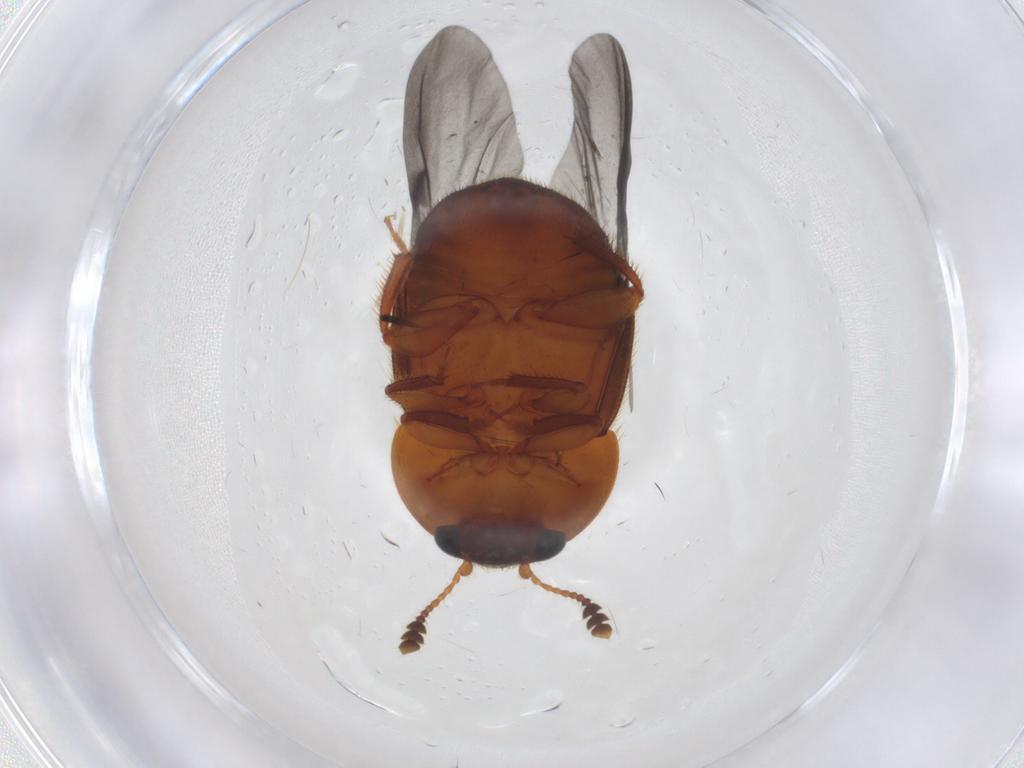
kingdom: Animalia
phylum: Arthropoda
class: Insecta
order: Coleoptera
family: Nitidulidae
